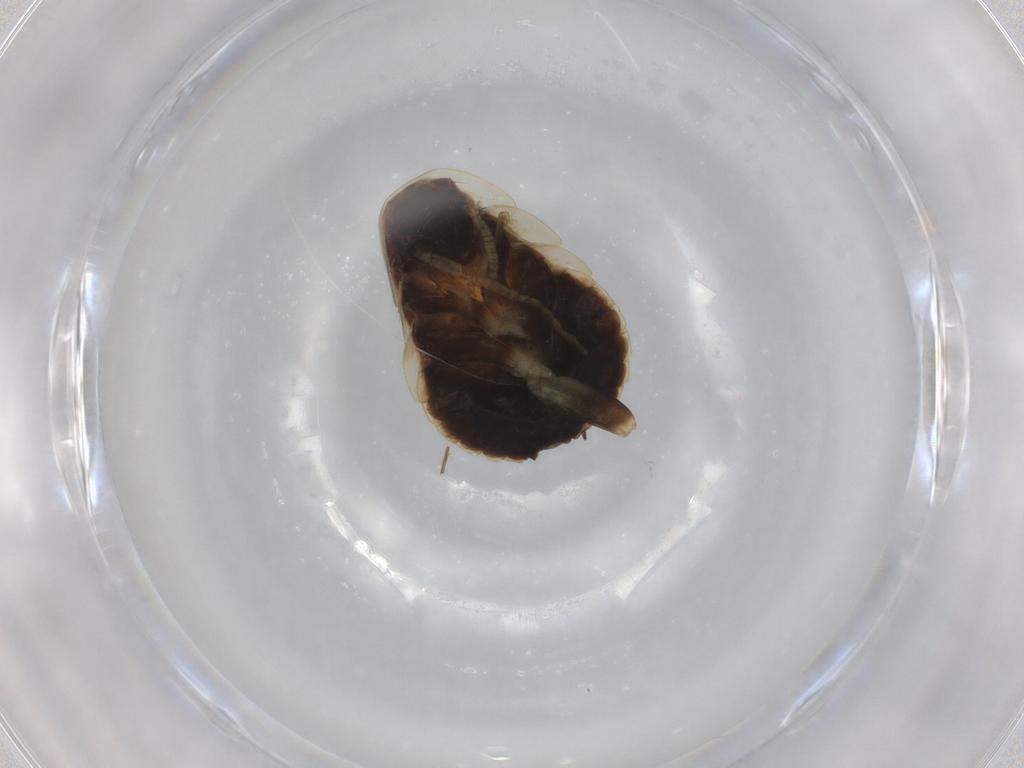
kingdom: Animalia
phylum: Arthropoda
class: Insecta
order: Blattodea
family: Ectobiidae
